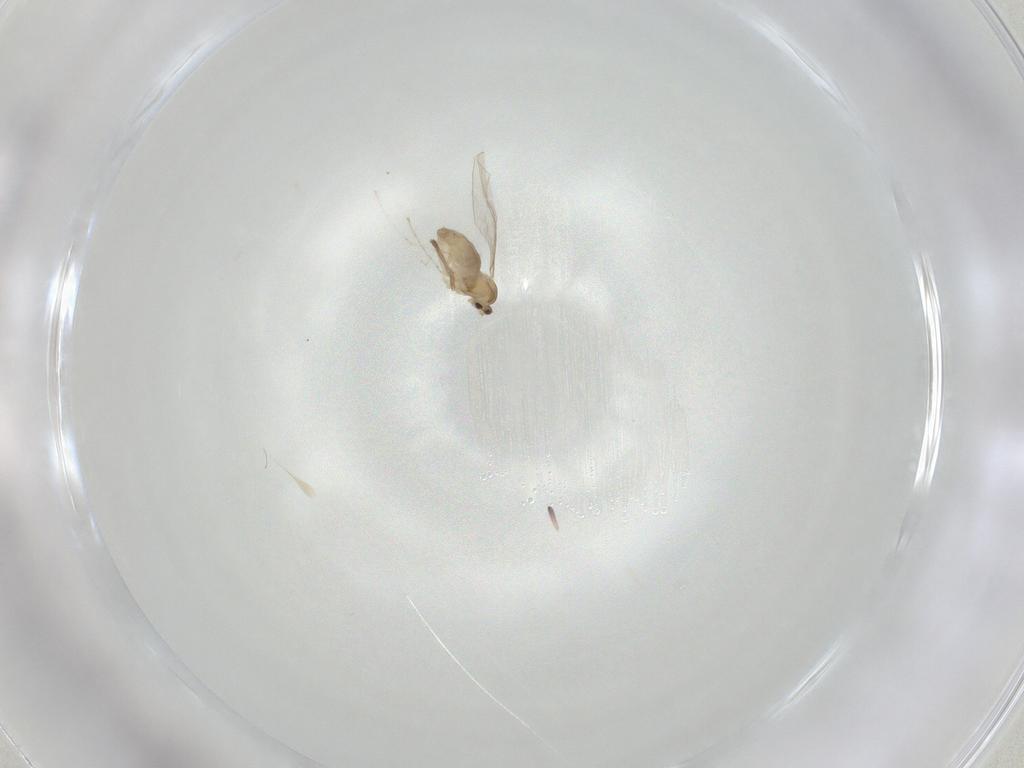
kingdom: Animalia
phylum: Arthropoda
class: Insecta
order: Diptera
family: Cecidomyiidae
